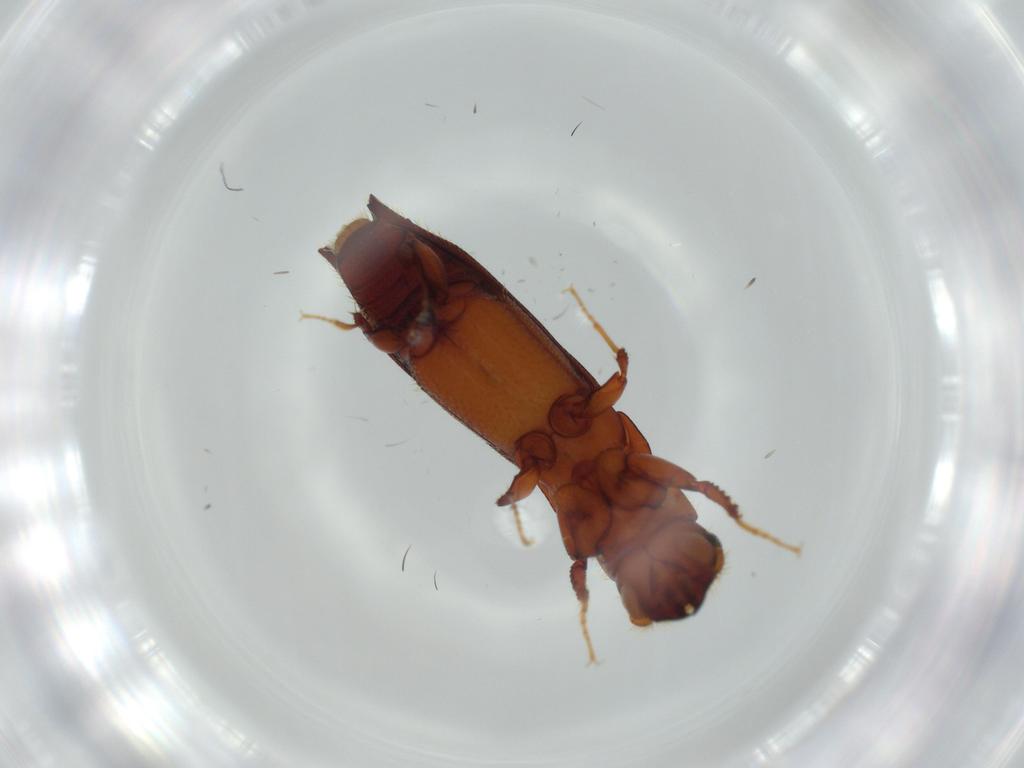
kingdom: Animalia
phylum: Arthropoda
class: Insecta
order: Coleoptera
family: Curculionidae
